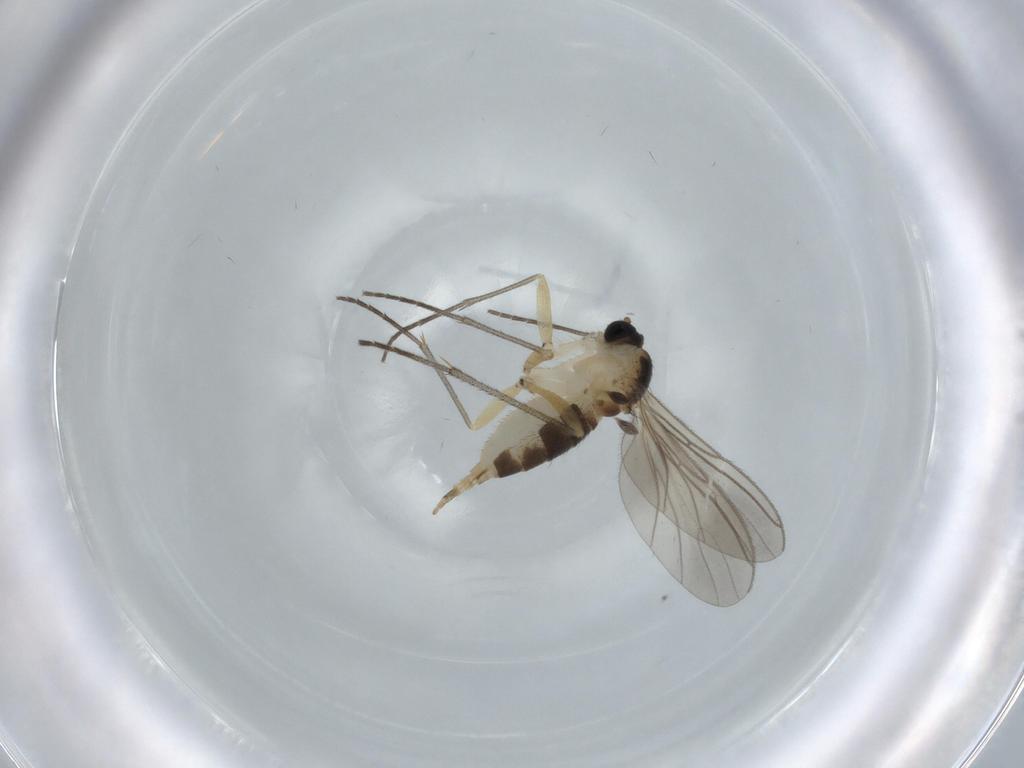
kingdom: Animalia
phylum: Arthropoda
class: Insecta
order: Diptera
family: Sciaridae
